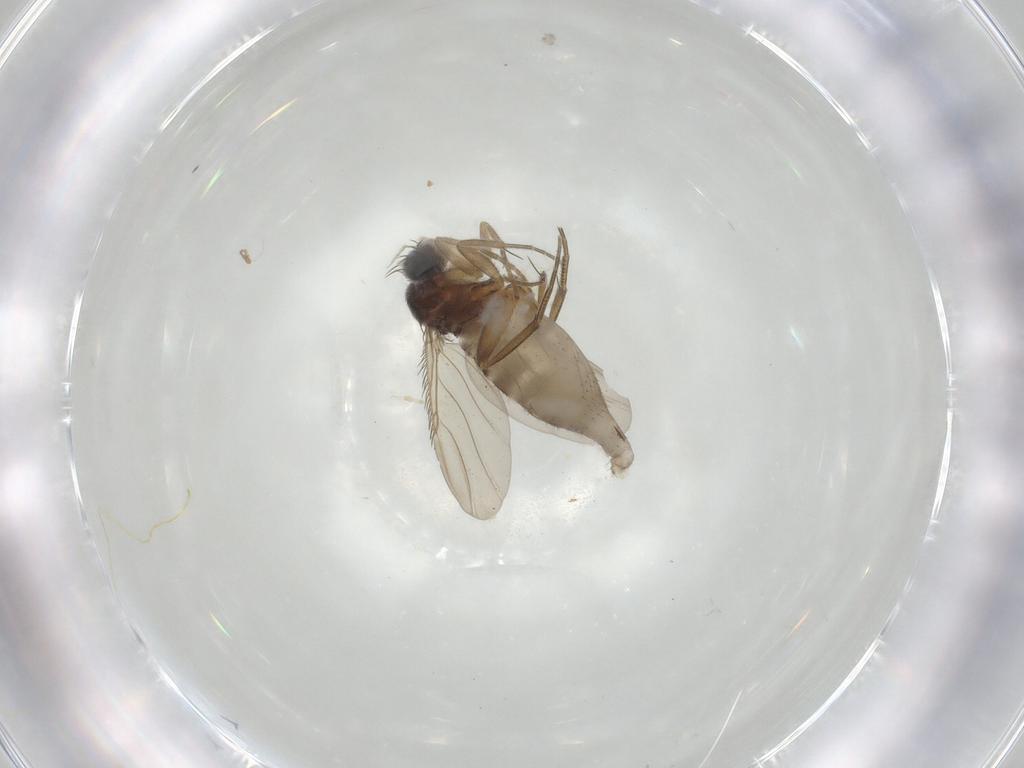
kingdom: Animalia
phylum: Arthropoda
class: Insecta
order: Diptera
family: Phoridae
